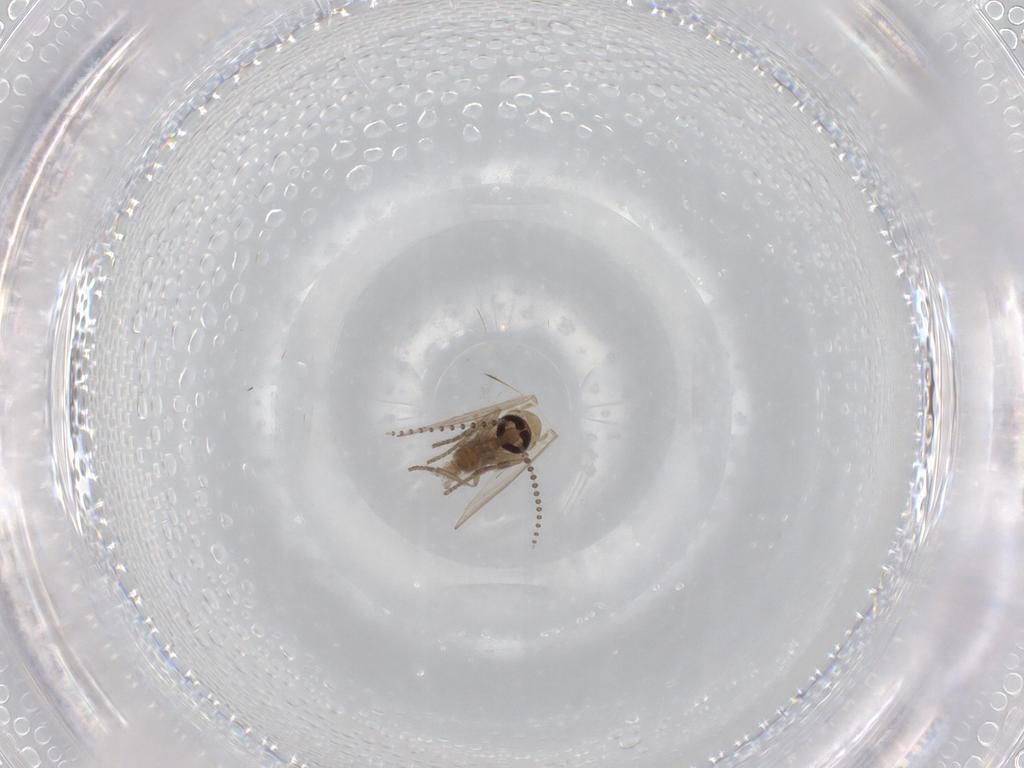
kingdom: Animalia
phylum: Arthropoda
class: Insecta
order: Diptera
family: Psychodidae
